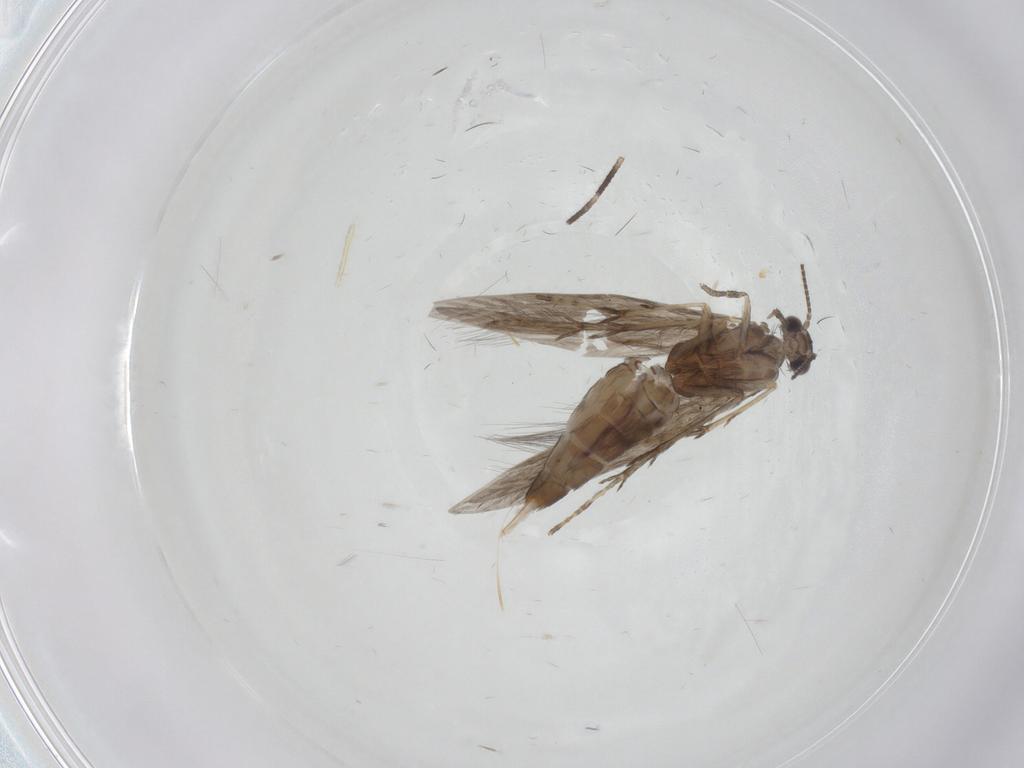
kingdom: Animalia
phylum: Arthropoda
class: Insecta
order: Trichoptera
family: Hydroptilidae
